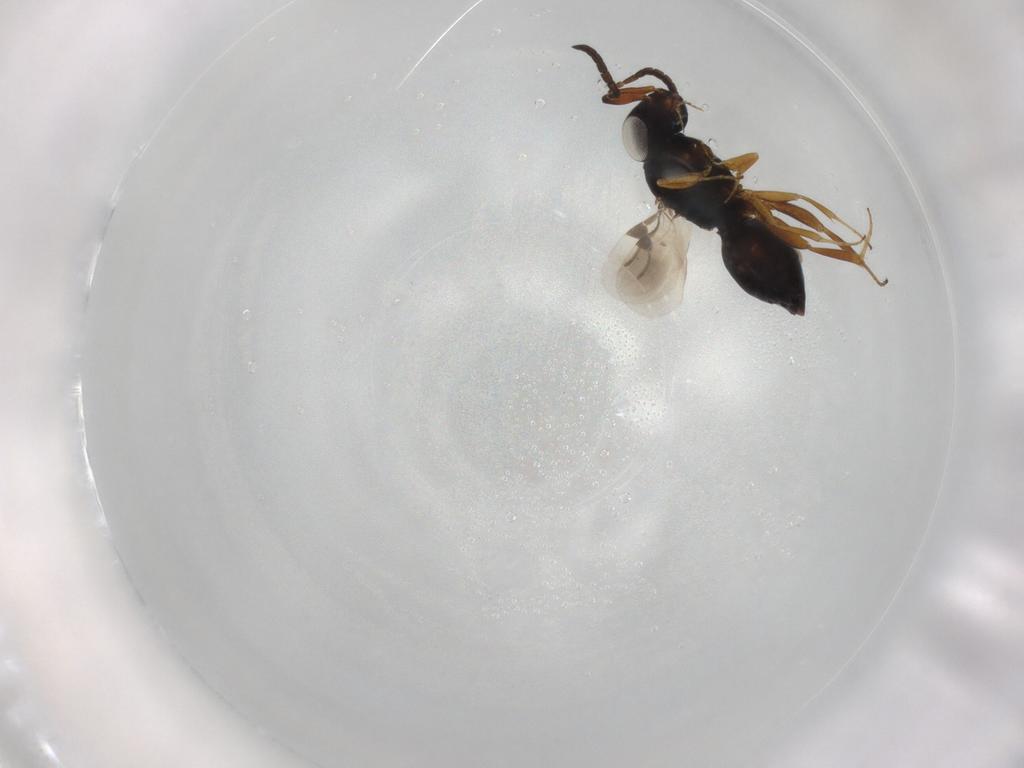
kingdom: Animalia
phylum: Arthropoda
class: Insecta
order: Hymenoptera
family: Megaspilidae
